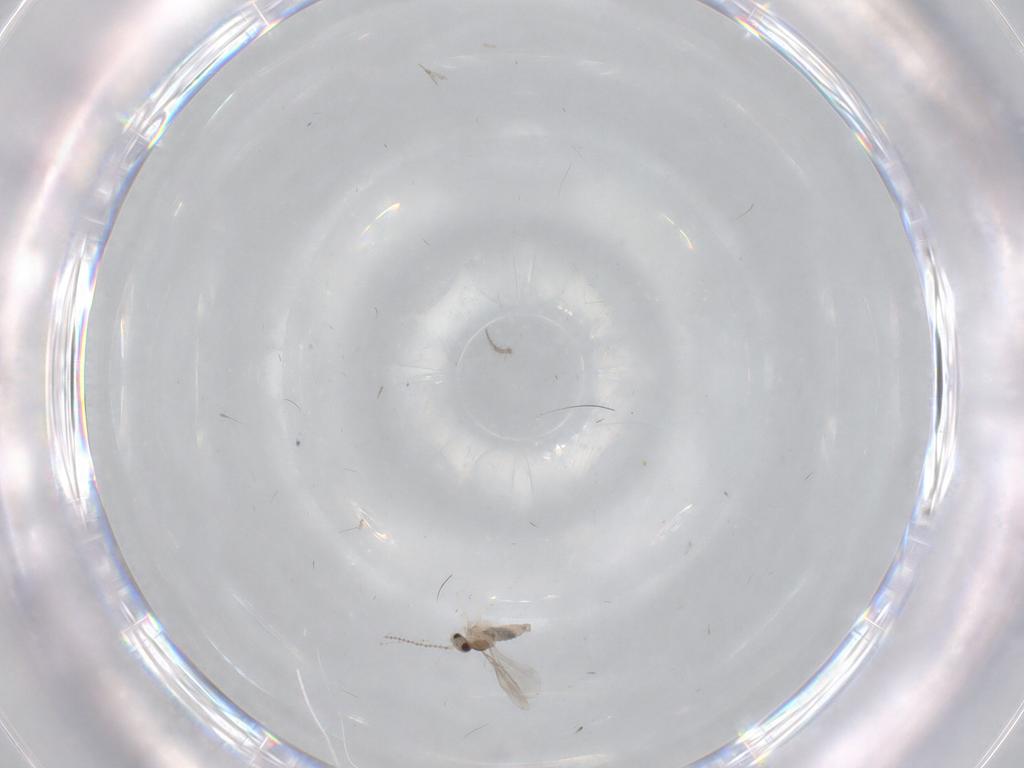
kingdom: Animalia
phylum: Arthropoda
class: Insecta
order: Diptera
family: Cecidomyiidae
